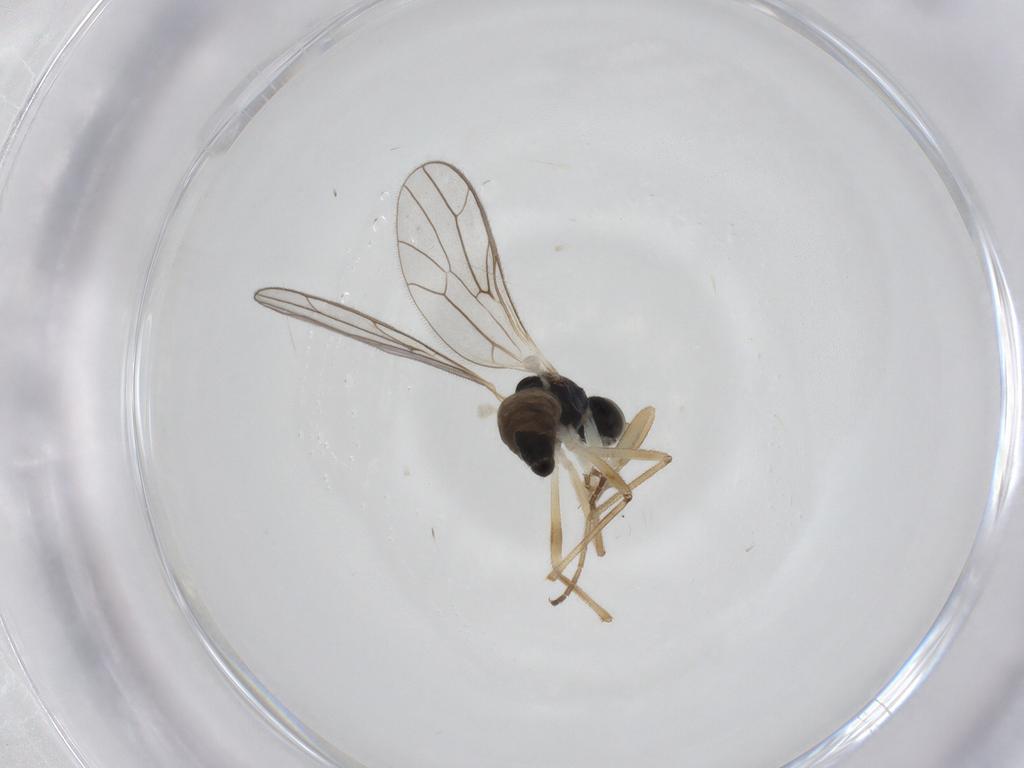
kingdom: Animalia
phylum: Arthropoda
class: Insecta
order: Diptera
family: Empididae
